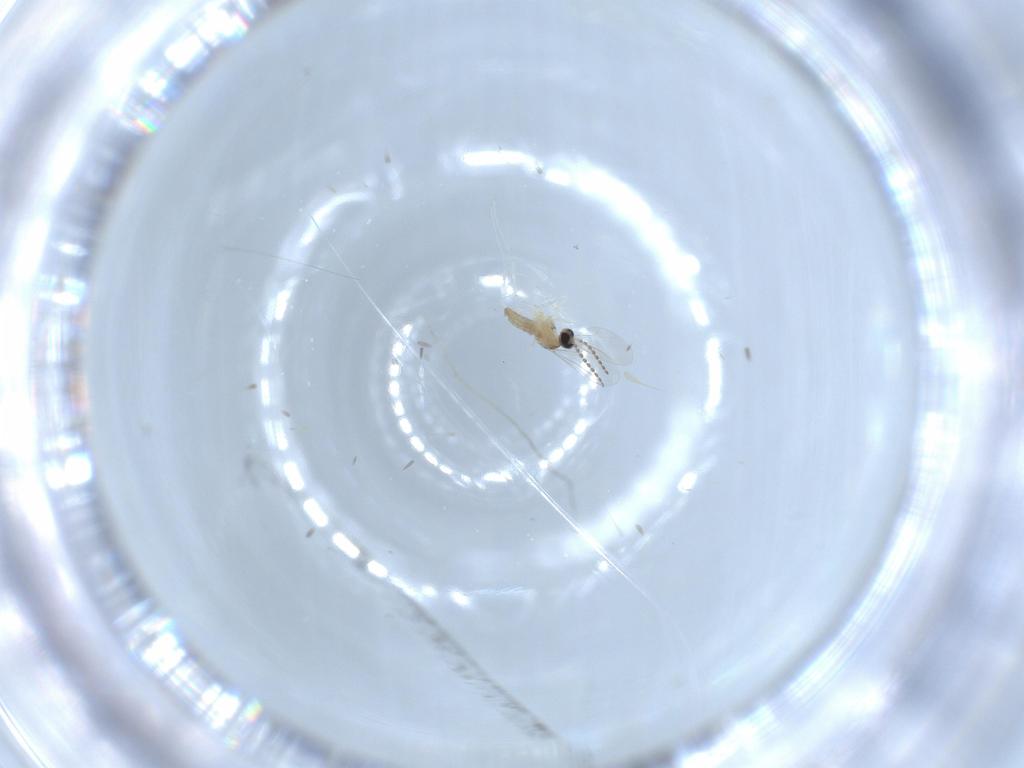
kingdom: Animalia
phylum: Arthropoda
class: Insecta
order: Diptera
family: Cecidomyiidae
